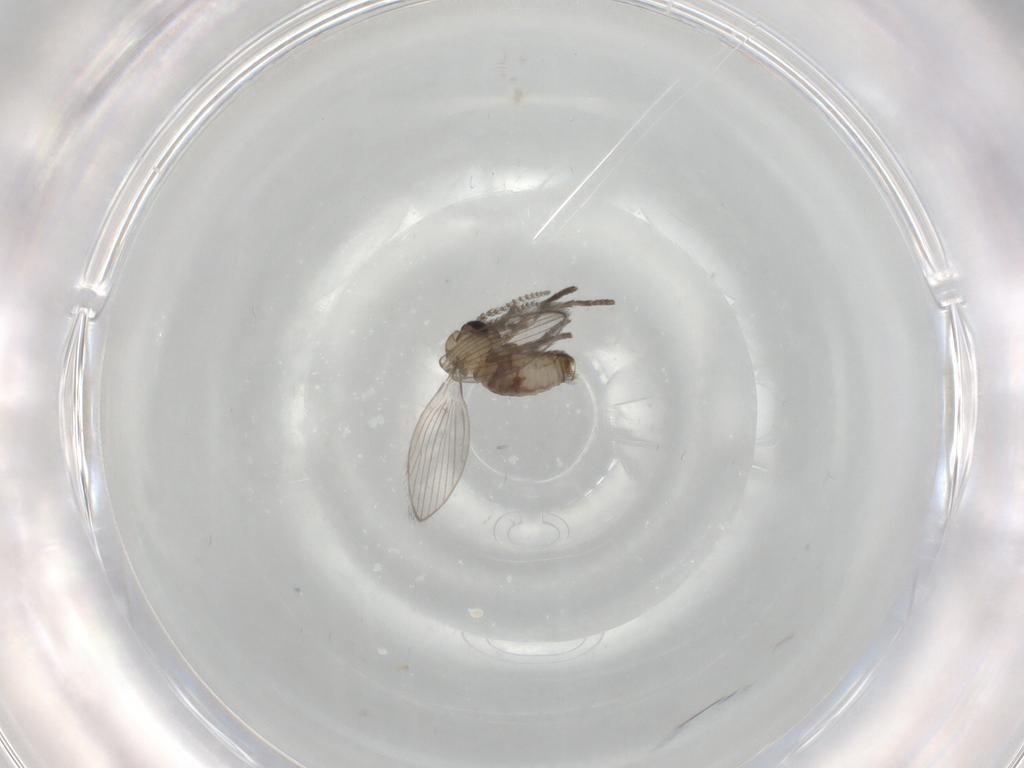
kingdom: Animalia
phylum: Arthropoda
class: Insecta
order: Diptera
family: Psychodidae
